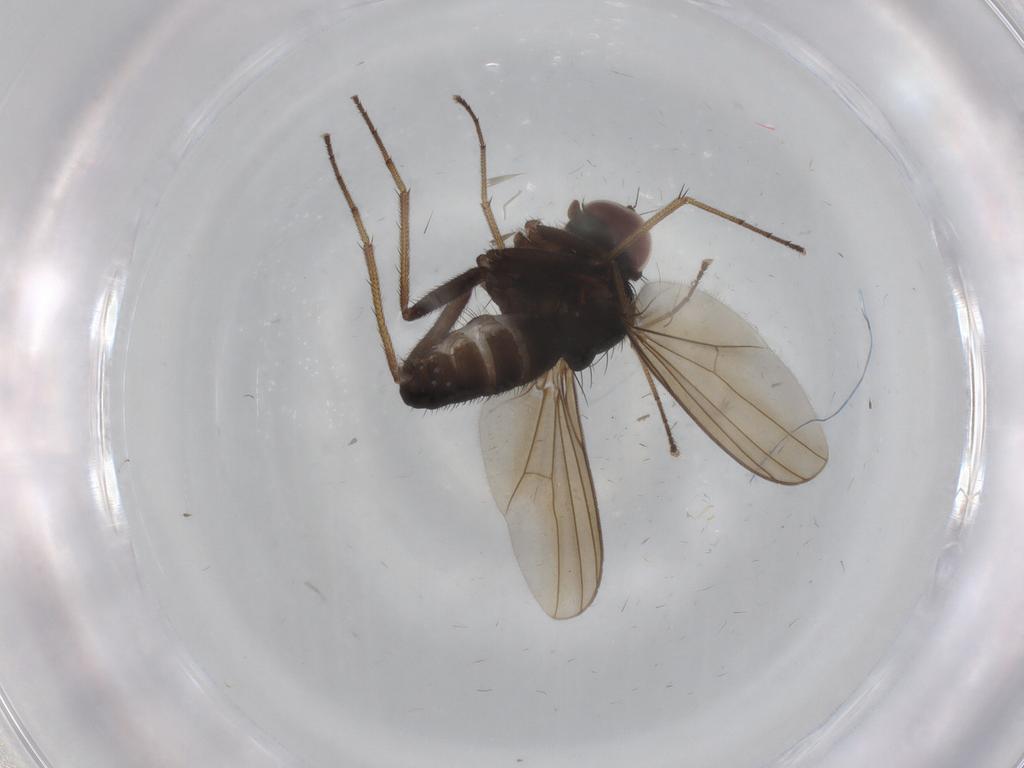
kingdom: Animalia
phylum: Arthropoda
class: Insecta
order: Diptera
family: Dolichopodidae
